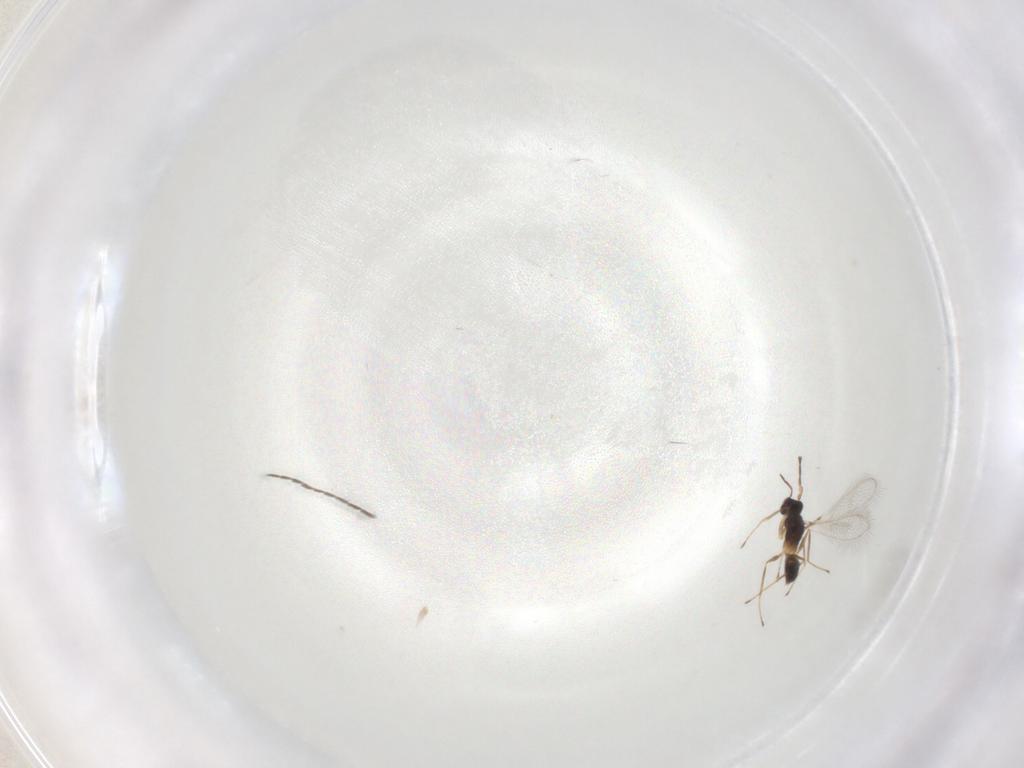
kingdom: Animalia
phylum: Arthropoda
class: Insecta
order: Hymenoptera
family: Mymaridae
